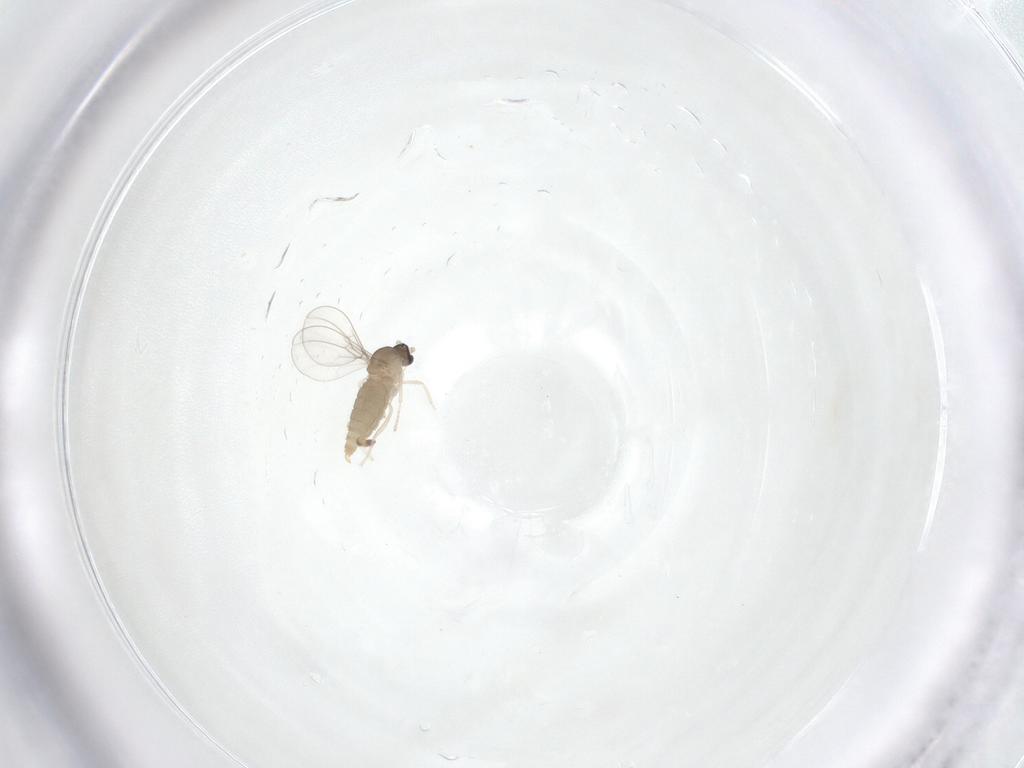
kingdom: Animalia
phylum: Arthropoda
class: Insecta
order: Diptera
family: Cecidomyiidae
